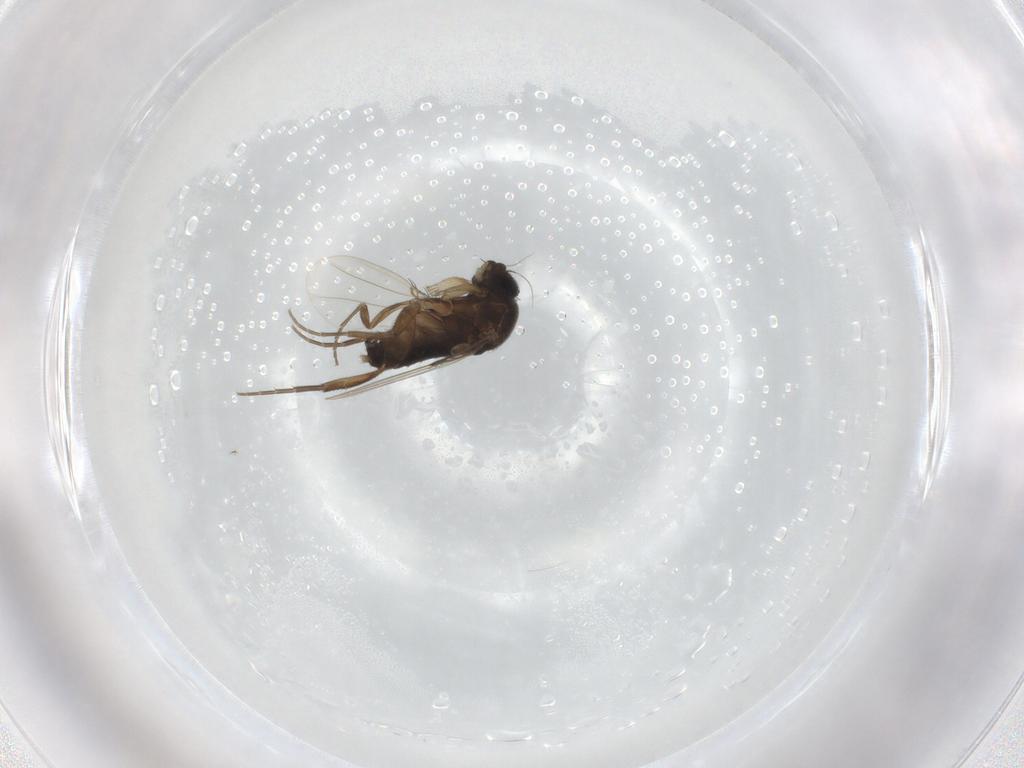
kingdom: Animalia
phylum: Arthropoda
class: Insecta
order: Diptera
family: Phoridae
